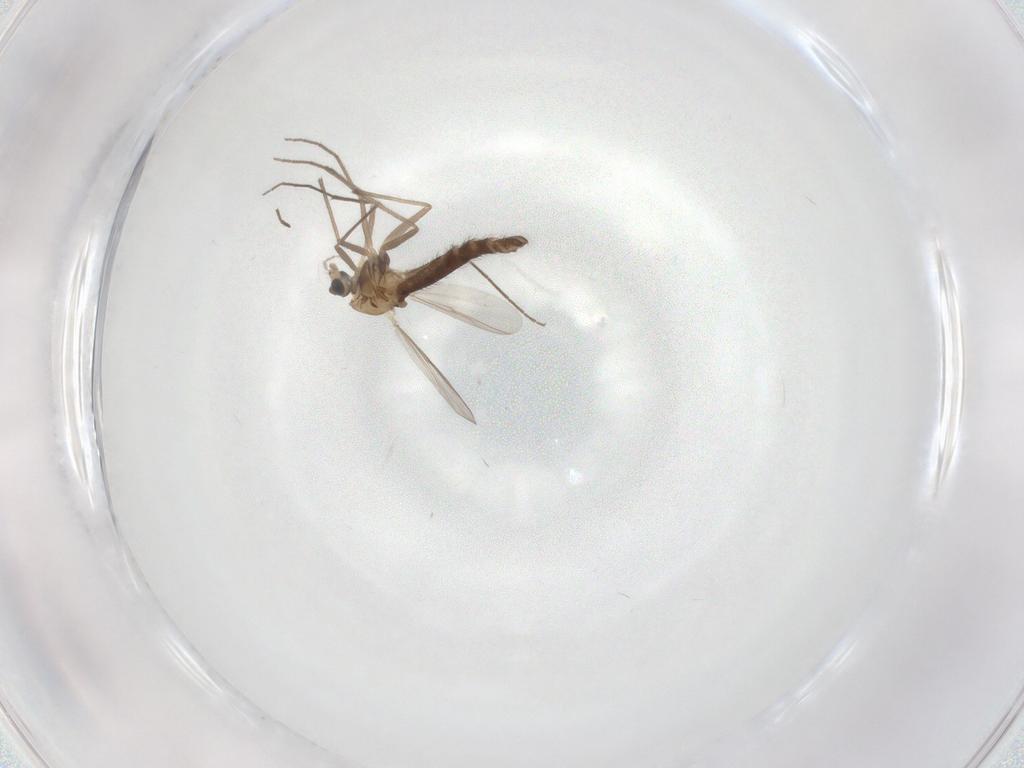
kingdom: Animalia
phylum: Arthropoda
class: Insecta
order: Diptera
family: Chironomidae
